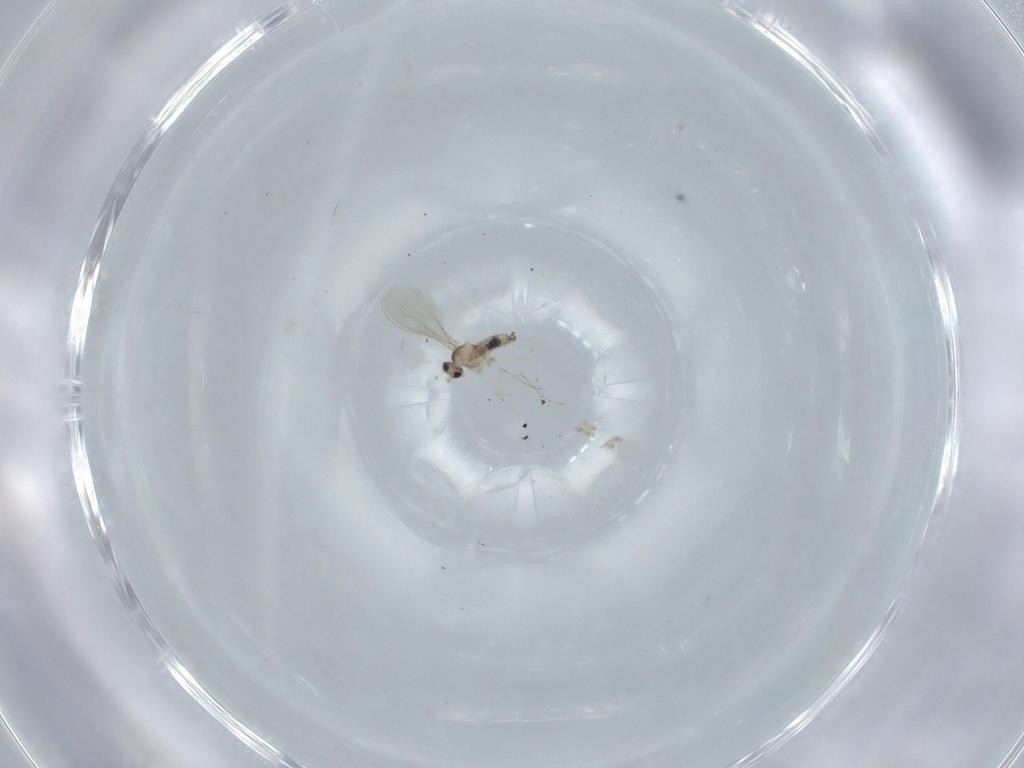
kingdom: Animalia
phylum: Arthropoda
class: Insecta
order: Diptera
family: Cecidomyiidae
